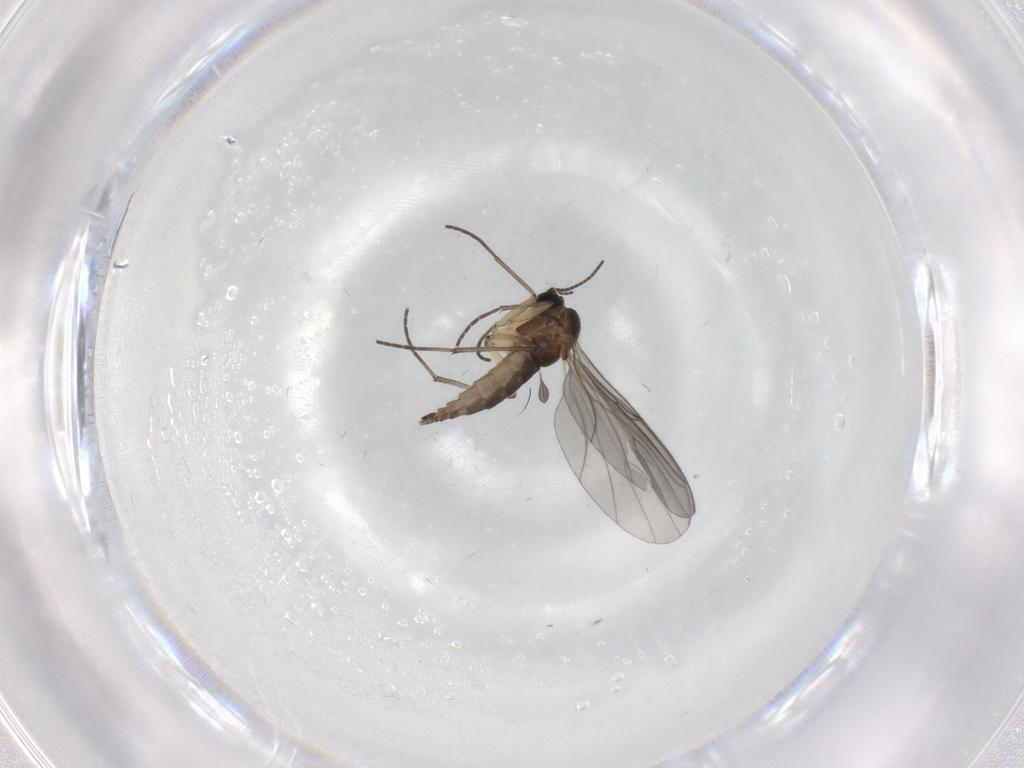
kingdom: Animalia
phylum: Arthropoda
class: Insecta
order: Diptera
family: Sciaridae
